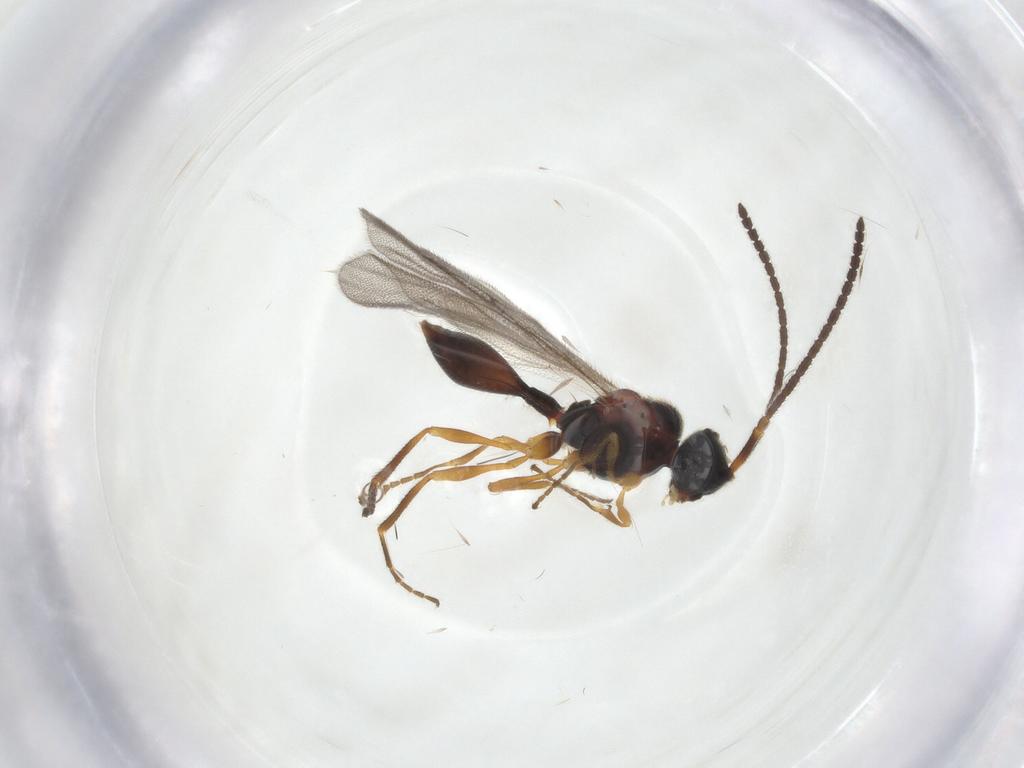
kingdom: Animalia
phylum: Arthropoda
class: Insecta
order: Hymenoptera
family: Diapriidae
